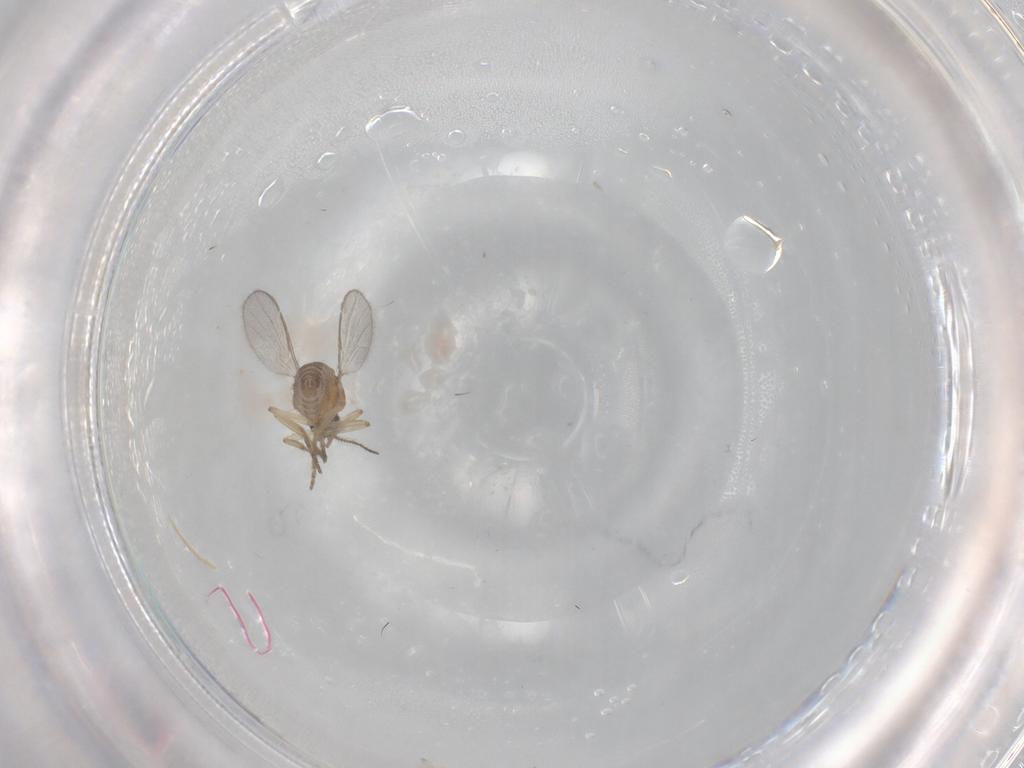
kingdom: Animalia
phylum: Arthropoda
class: Insecta
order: Diptera
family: Ceratopogonidae
